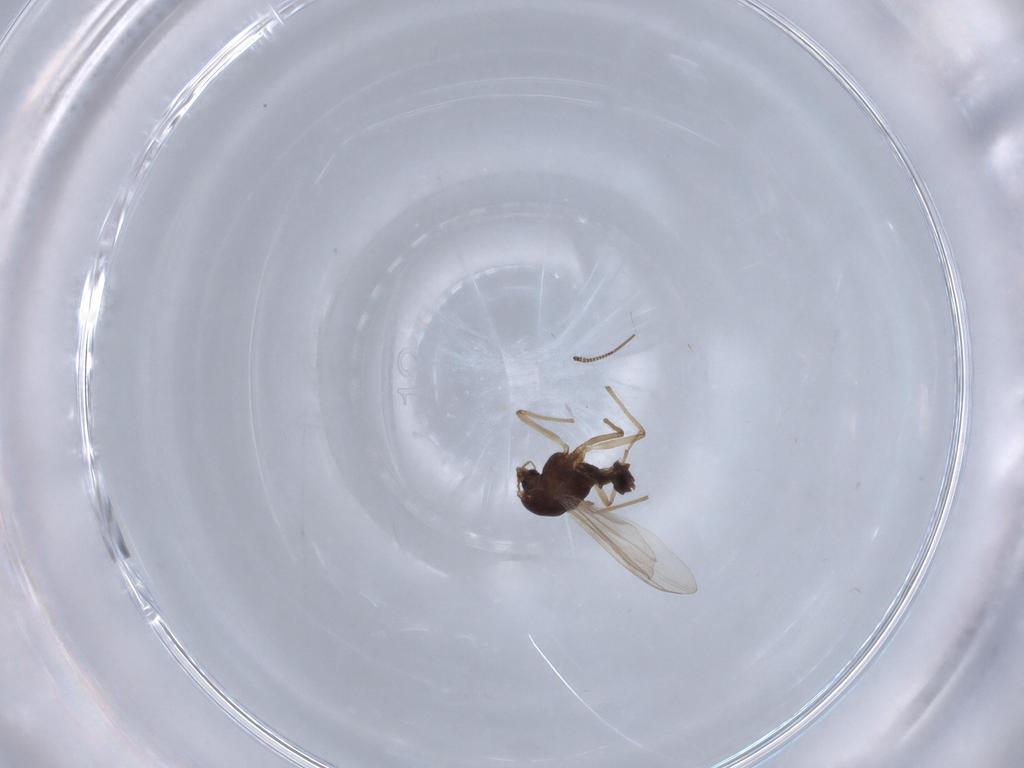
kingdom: Animalia
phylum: Arthropoda
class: Insecta
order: Diptera
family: Chironomidae
